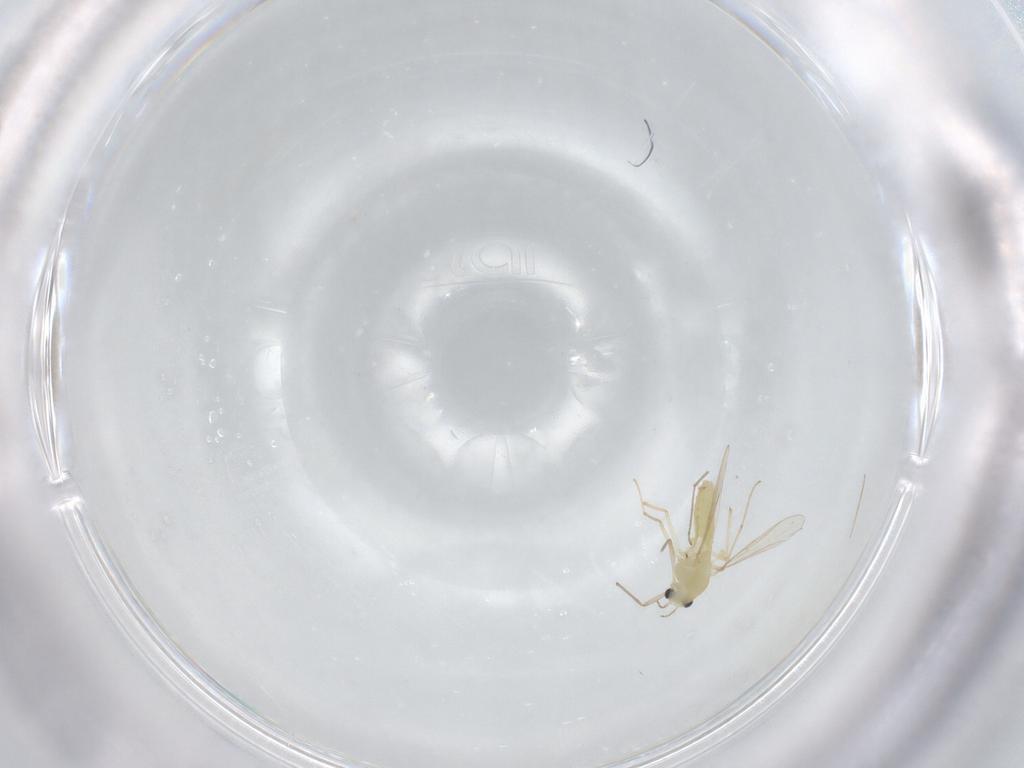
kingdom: Animalia
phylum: Arthropoda
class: Insecta
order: Diptera
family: Chironomidae
